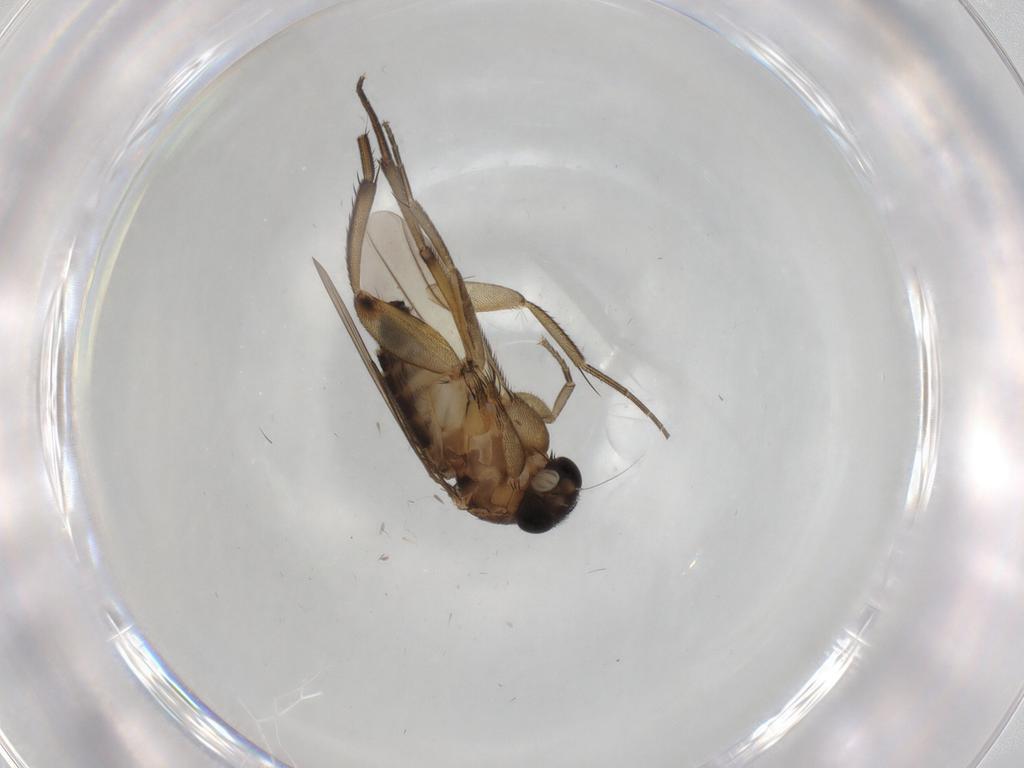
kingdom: Animalia
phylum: Arthropoda
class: Insecta
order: Diptera
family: Phoridae
